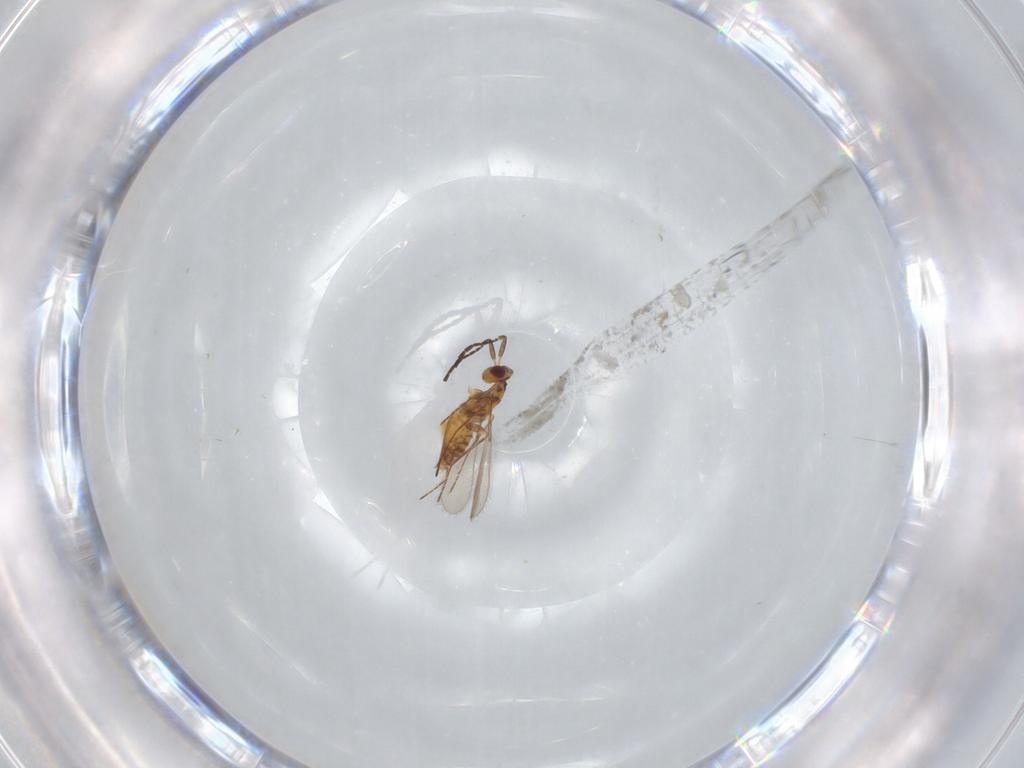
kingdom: Animalia
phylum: Arthropoda
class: Insecta
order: Hymenoptera
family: Mymaridae
